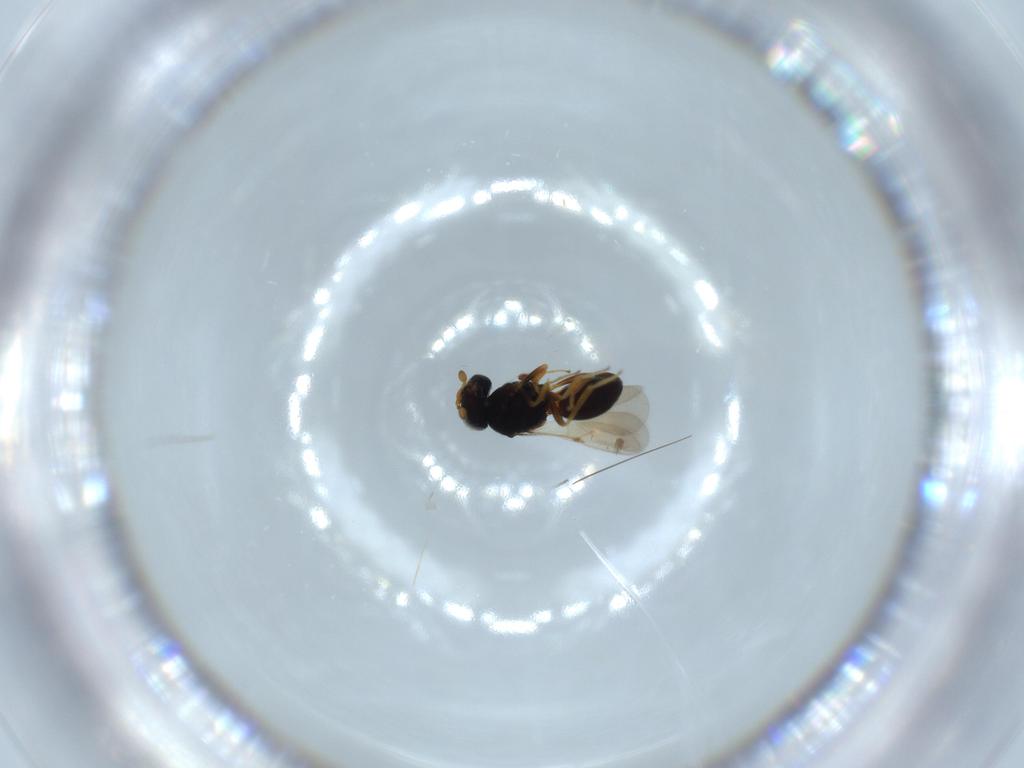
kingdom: Animalia
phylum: Arthropoda
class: Insecta
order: Hymenoptera
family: Scelionidae
